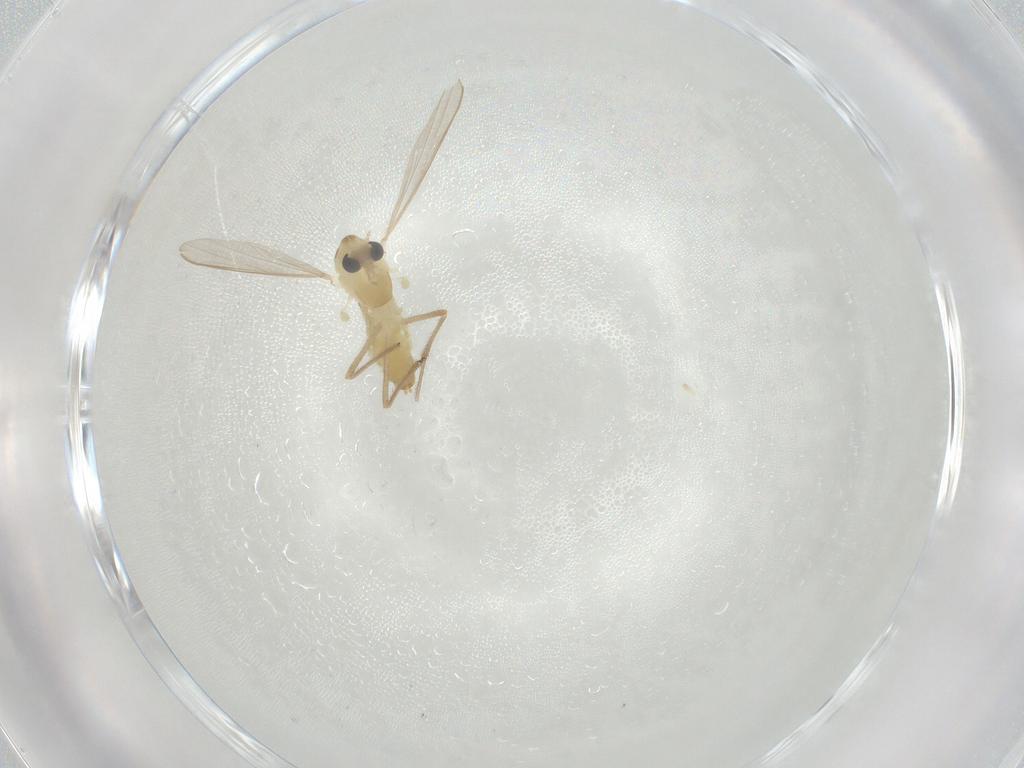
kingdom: Animalia
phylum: Arthropoda
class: Insecta
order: Diptera
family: Chironomidae
